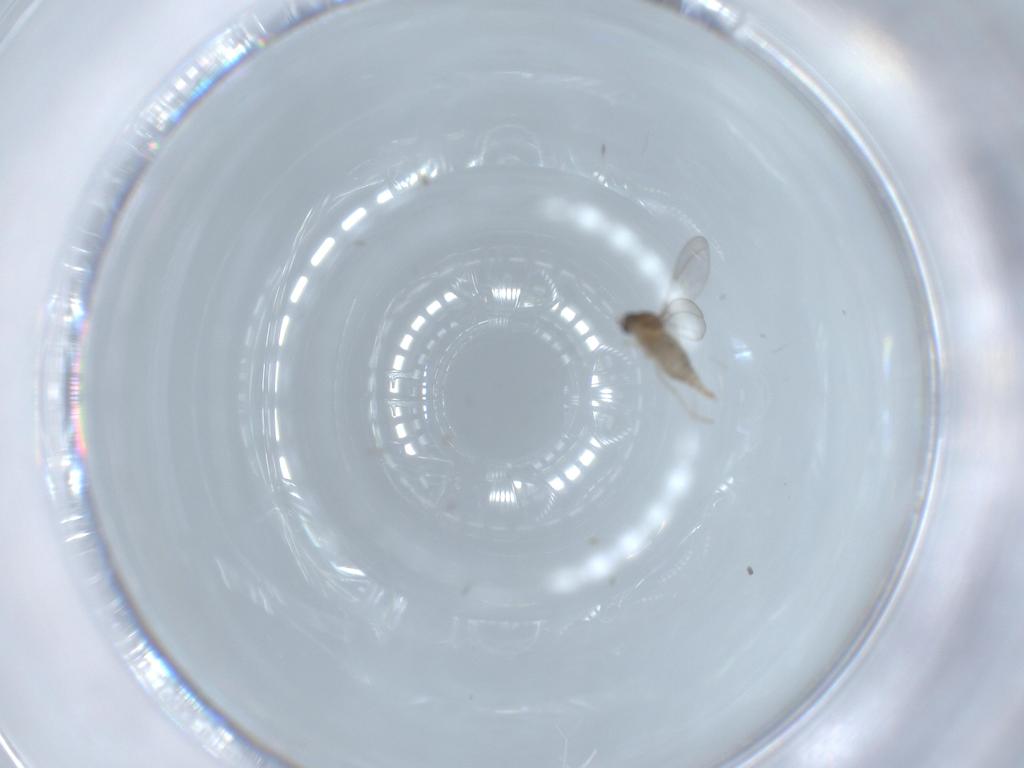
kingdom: Animalia
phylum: Arthropoda
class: Insecta
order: Diptera
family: Cecidomyiidae
